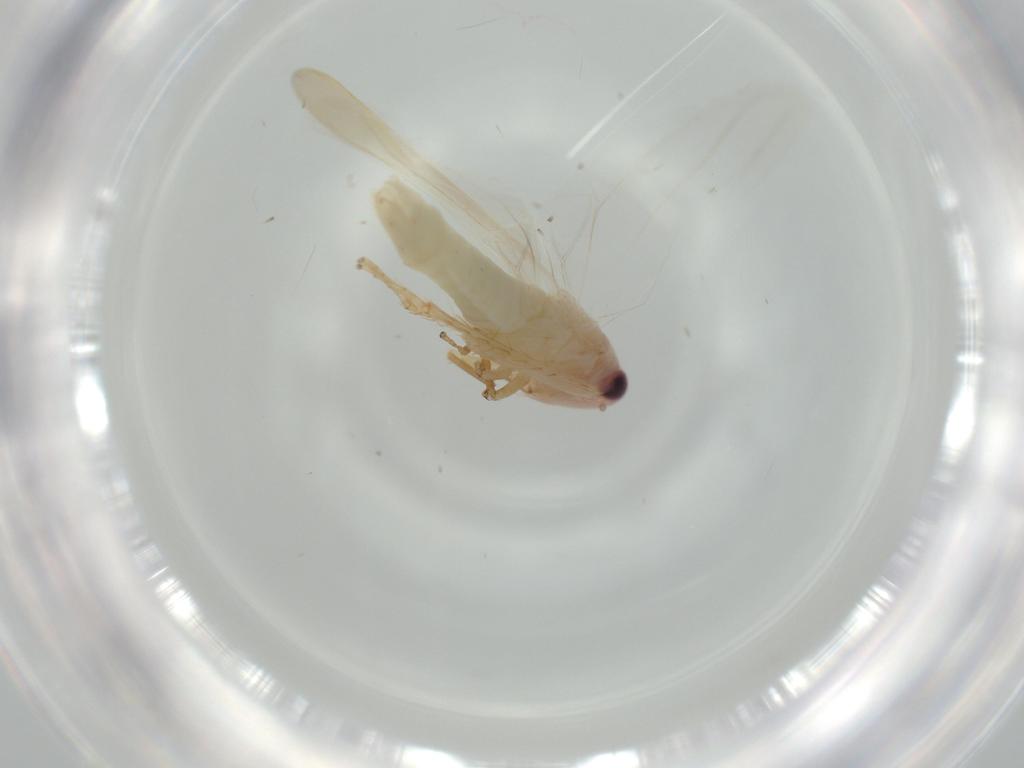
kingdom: Animalia
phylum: Arthropoda
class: Insecta
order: Hemiptera
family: Cicadellidae
